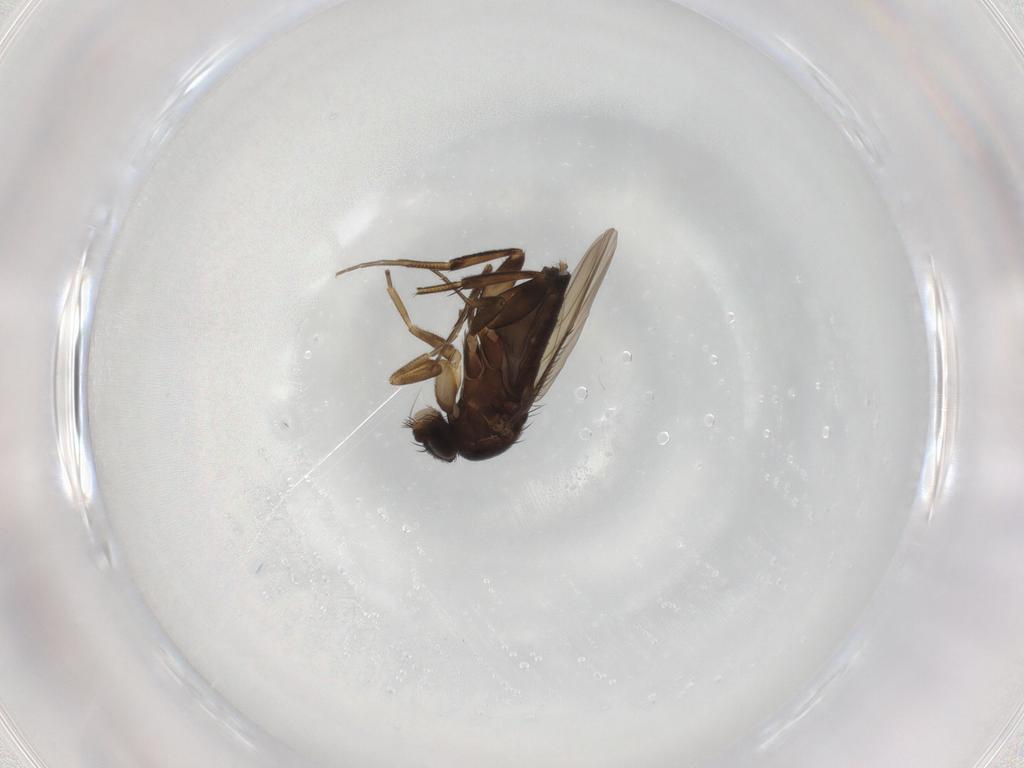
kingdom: Animalia
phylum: Arthropoda
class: Insecta
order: Diptera
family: Phoridae
